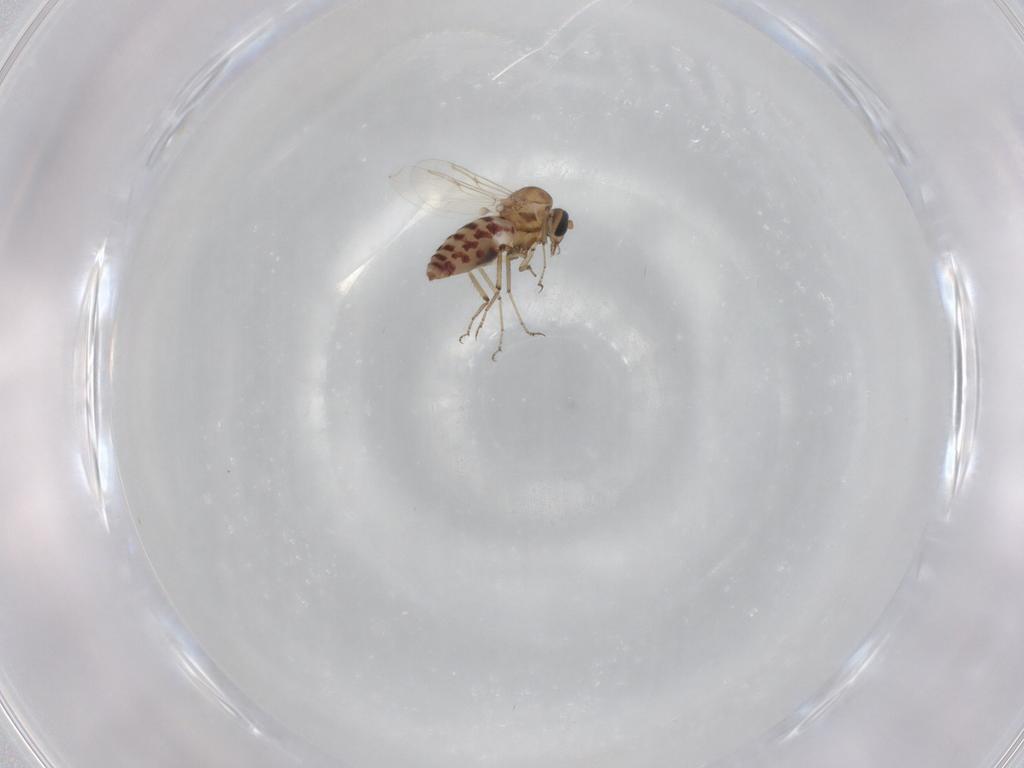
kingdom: Animalia
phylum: Arthropoda
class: Insecta
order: Diptera
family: Ceratopogonidae
